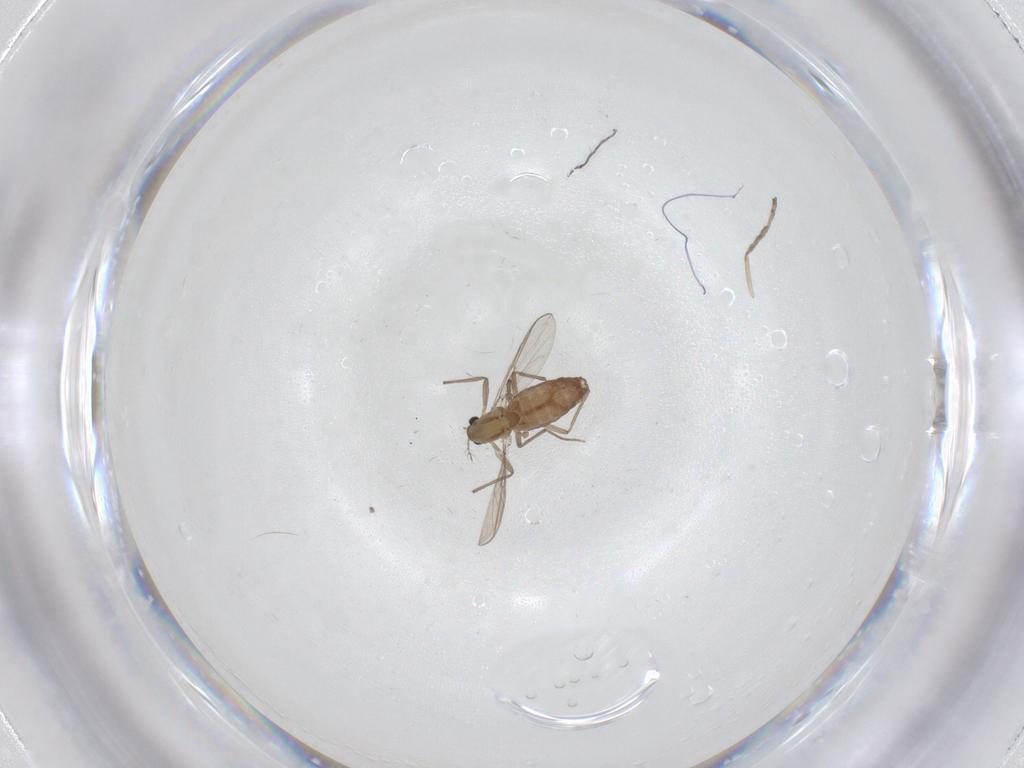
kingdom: Animalia
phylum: Arthropoda
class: Insecta
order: Diptera
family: Chironomidae
